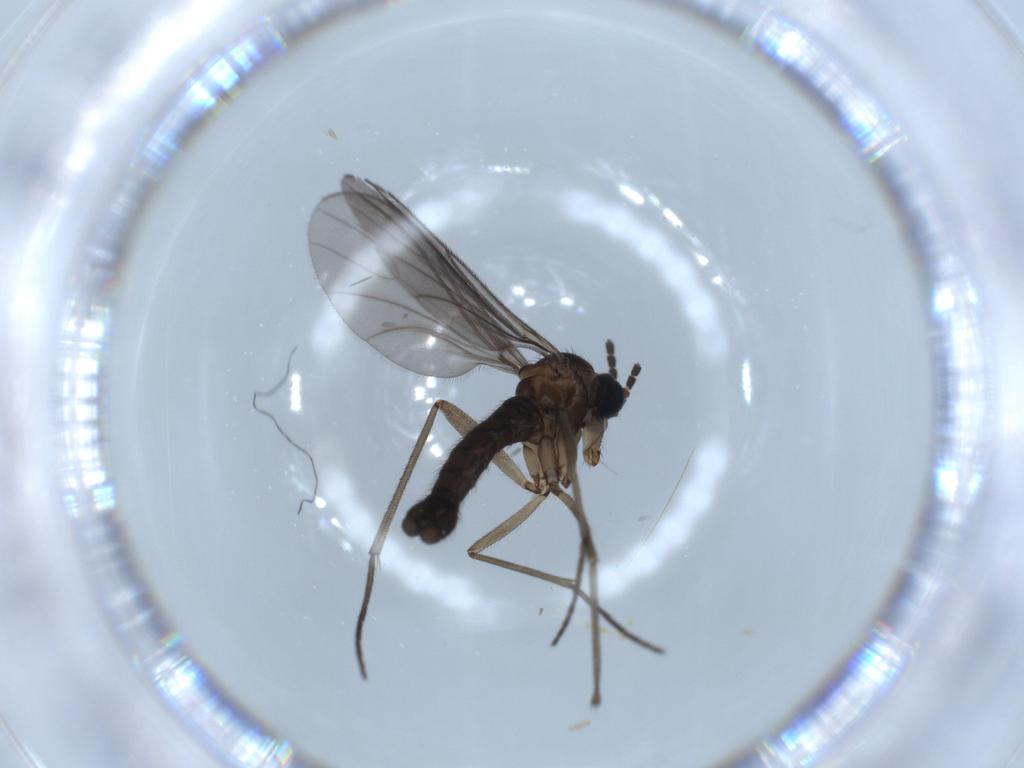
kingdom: Animalia
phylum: Arthropoda
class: Insecta
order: Diptera
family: Sciaridae
